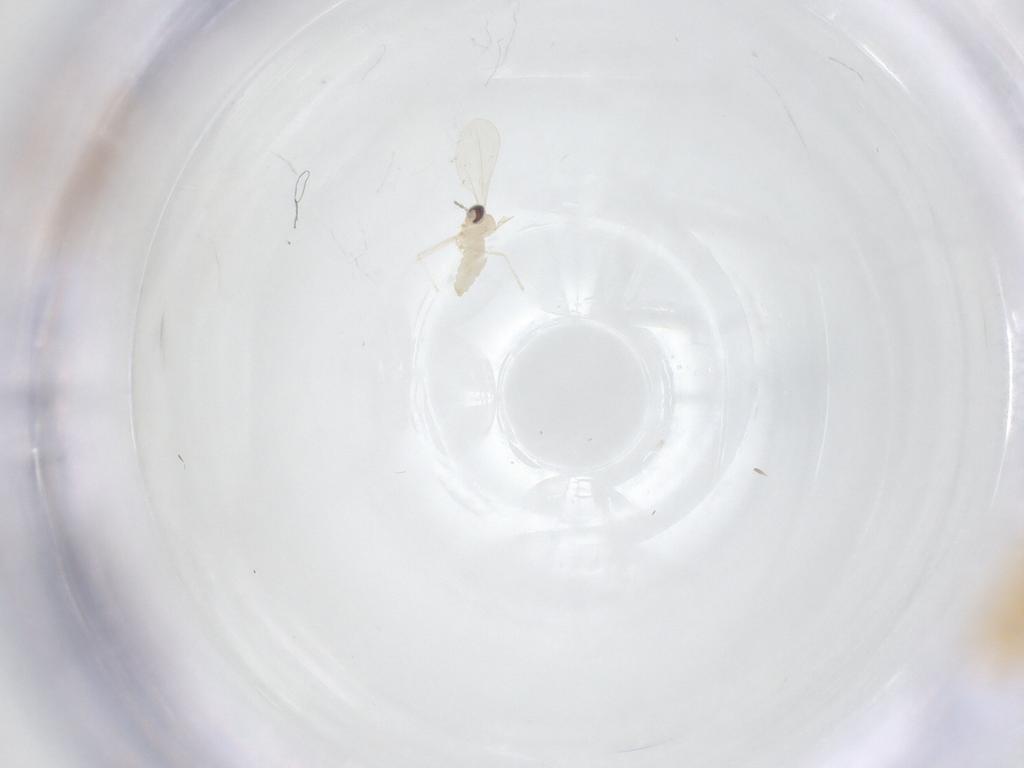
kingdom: Animalia
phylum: Arthropoda
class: Insecta
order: Diptera
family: Cecidomyiidae
